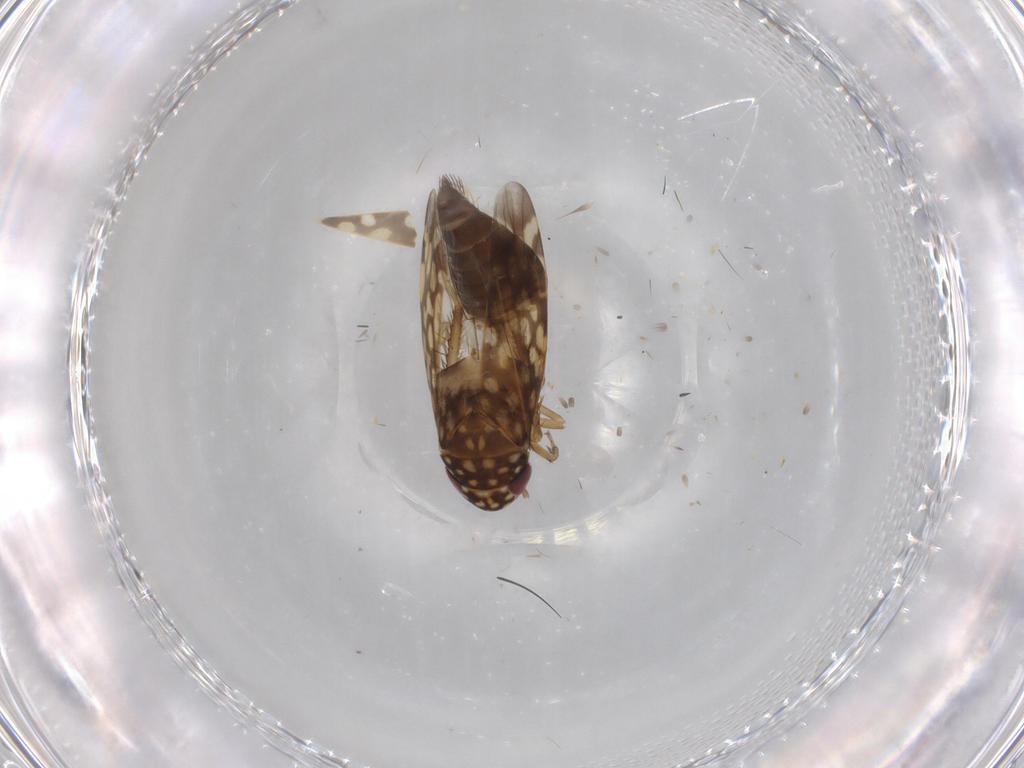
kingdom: Animalia
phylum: Arthropoda
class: Insecta
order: Hemiptera
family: Cicadellidae
